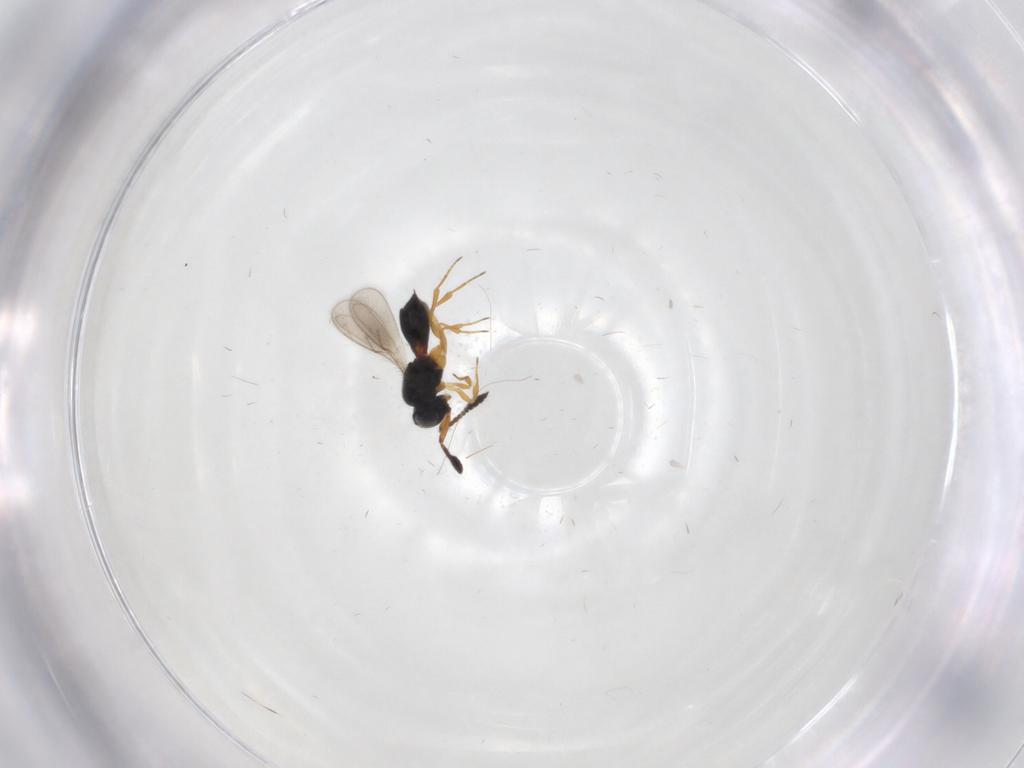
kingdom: Animalia
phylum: Arthropoda
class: Insecta
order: Hymenoptera
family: Scelionidae
